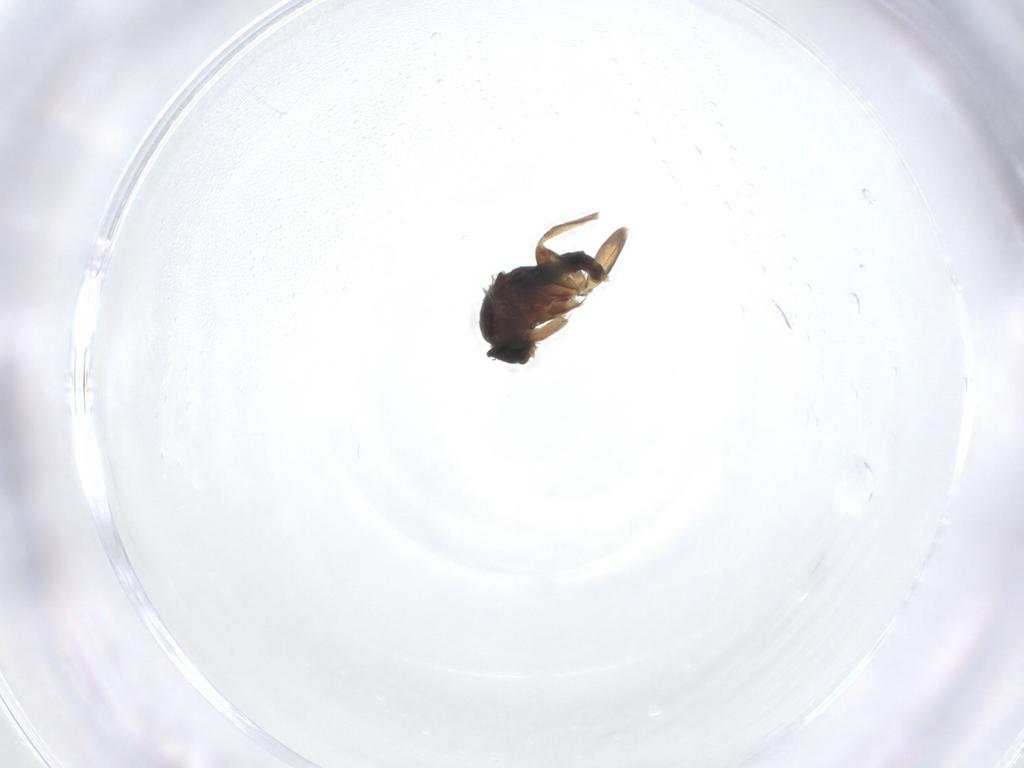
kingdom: Animalia
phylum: Arthropoda
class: Insecta
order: Diptera
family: Phoridae
